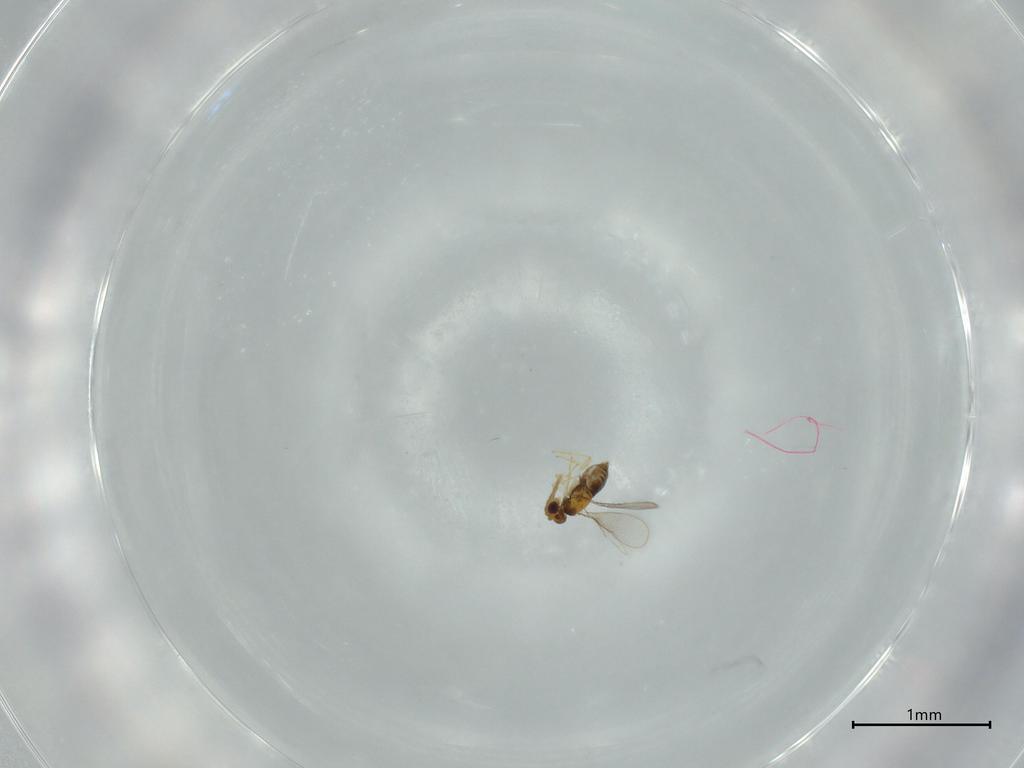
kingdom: Animalia
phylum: Arthropoda
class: Insecta
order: Hymenoptera
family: Aphelinidae
